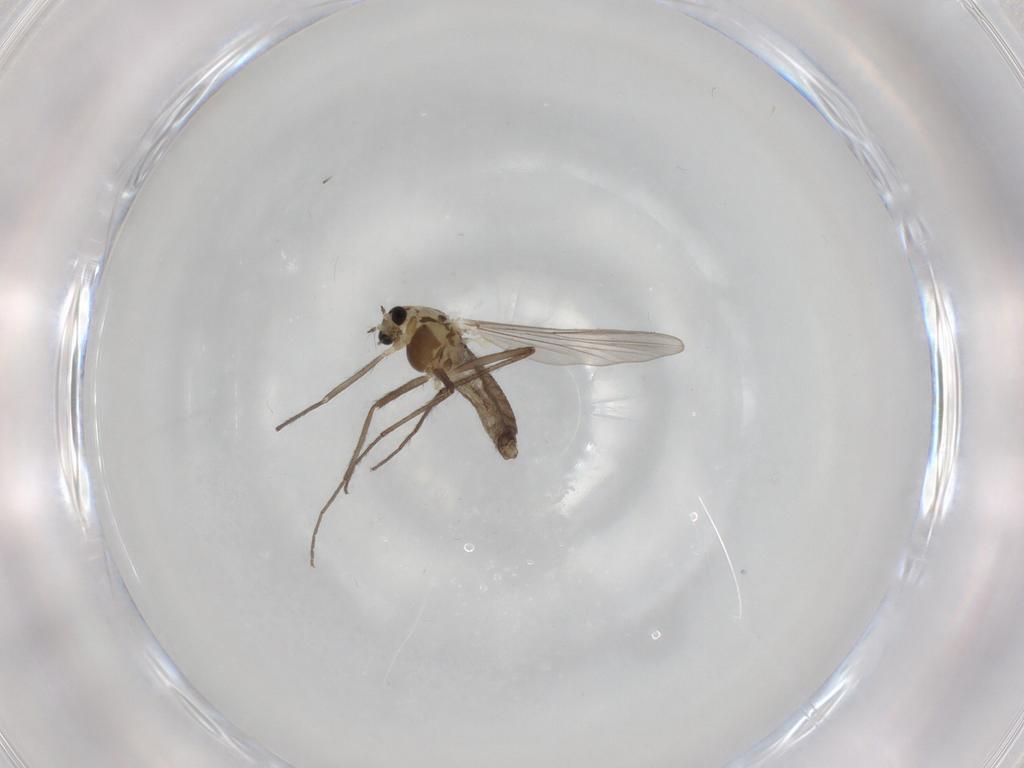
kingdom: Animalia
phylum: Arthropoda
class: Insecta
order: Diptera
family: Chironomidae
